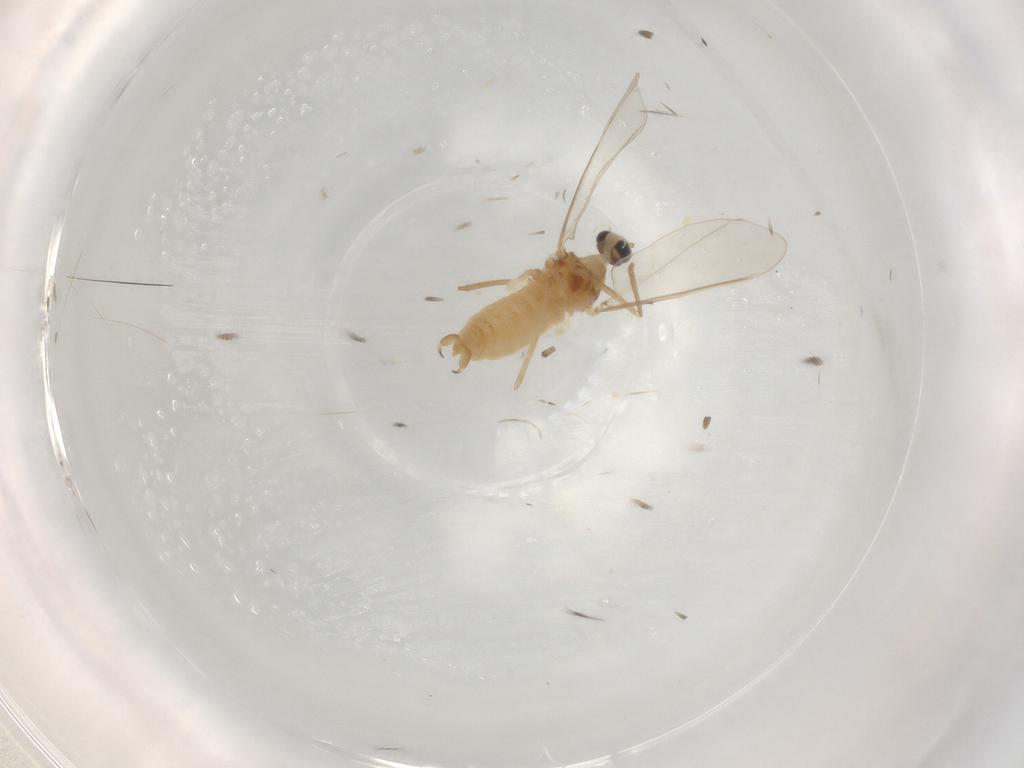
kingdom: Animalia
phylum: Arthropoda
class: Insecta
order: Diptera
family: Cecidomyiidae
